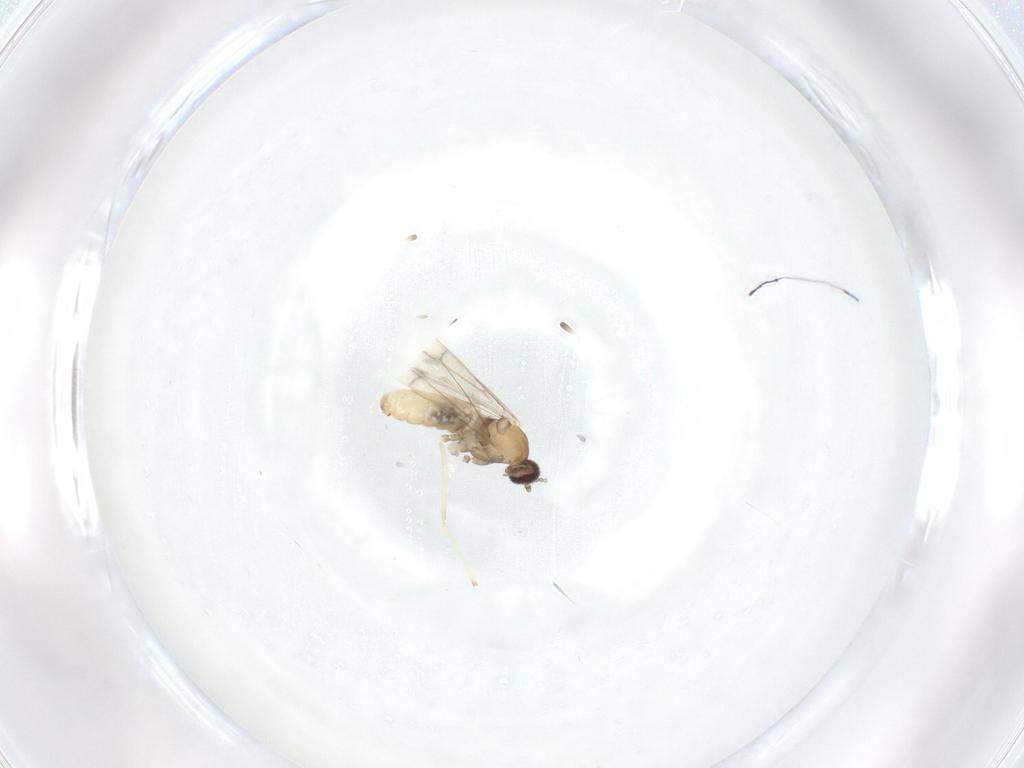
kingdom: Animalia
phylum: Arthropoda
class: Insecta
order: Diptera
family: Cecidomyiidae
